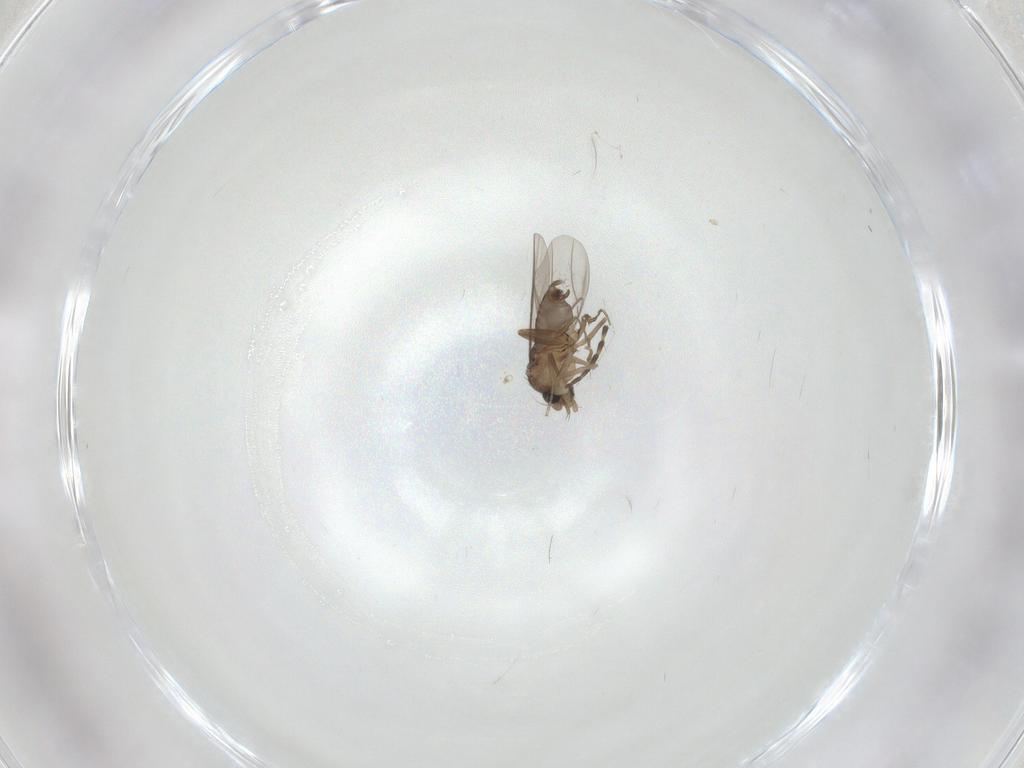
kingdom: Animalia
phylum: Arthropoda
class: Insecta
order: Diptera
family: Phoridae
